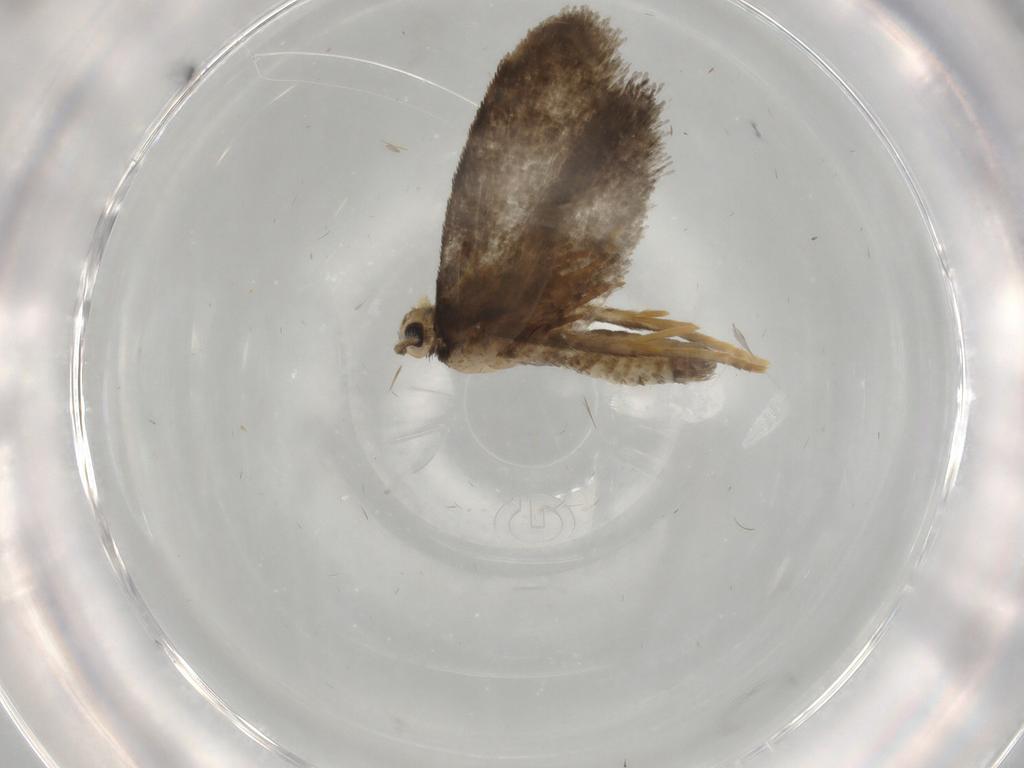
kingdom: Animalia
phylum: Arthropoda
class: Insecta
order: Lepidoptera
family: Psychidae
